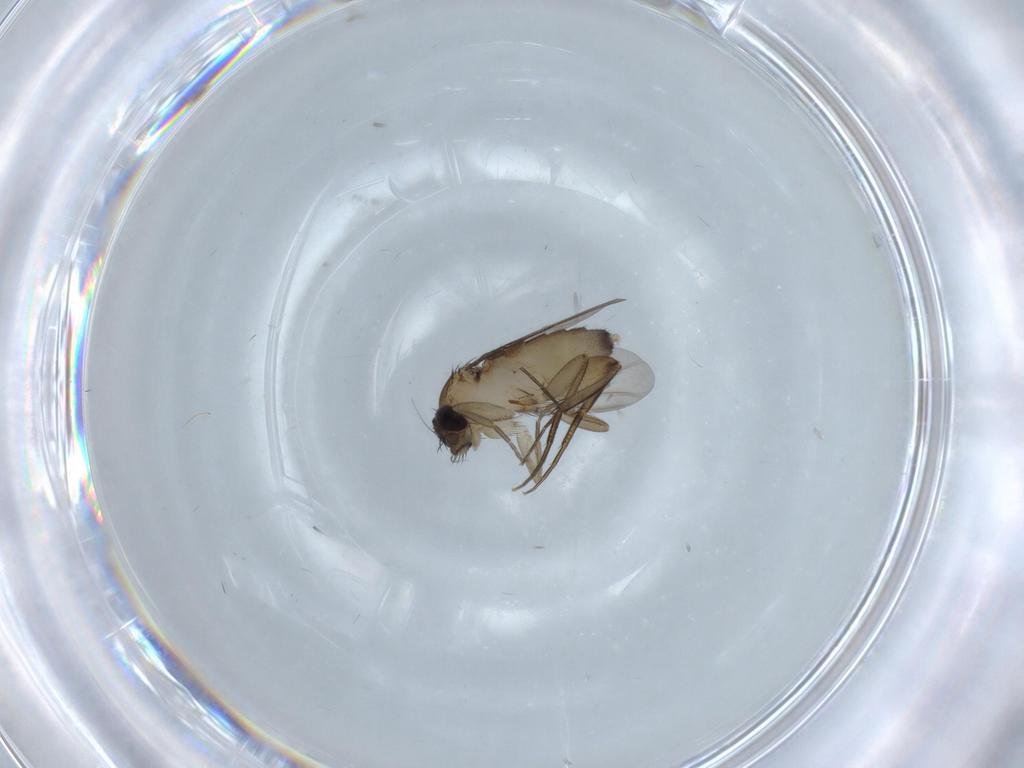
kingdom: Animalia
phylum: Arthropoda
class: Insecta
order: Diptera
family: Phoridae
